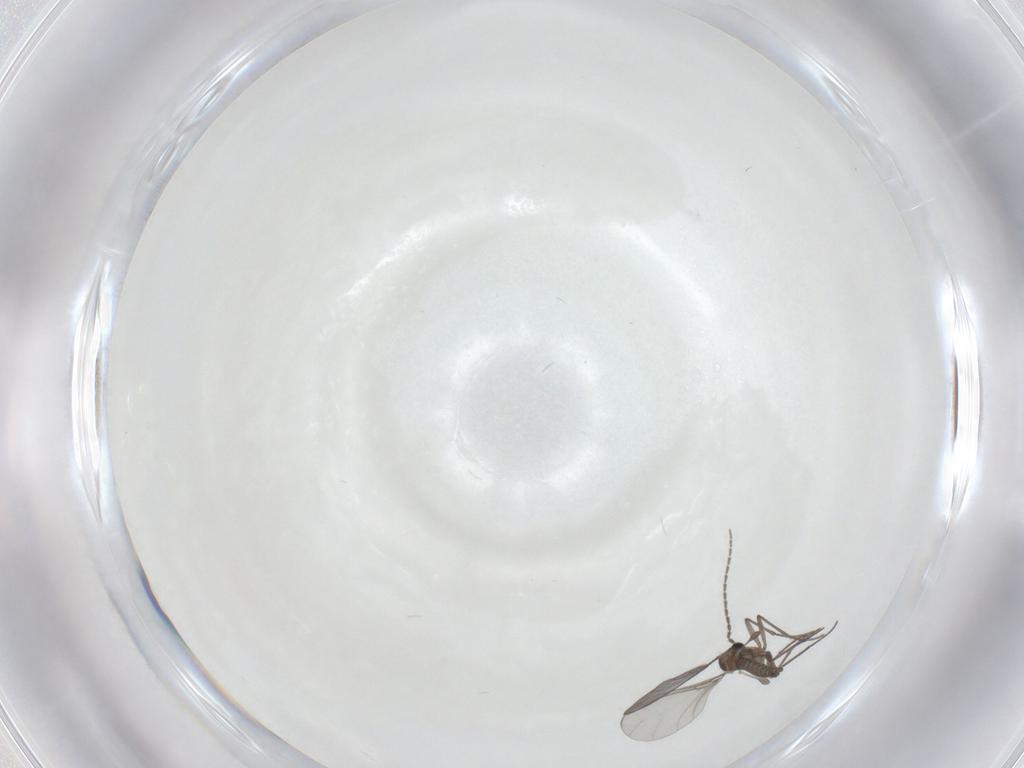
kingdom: Animalia
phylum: Arthropoda
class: Insecta
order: Diptera
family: Sciaridae
